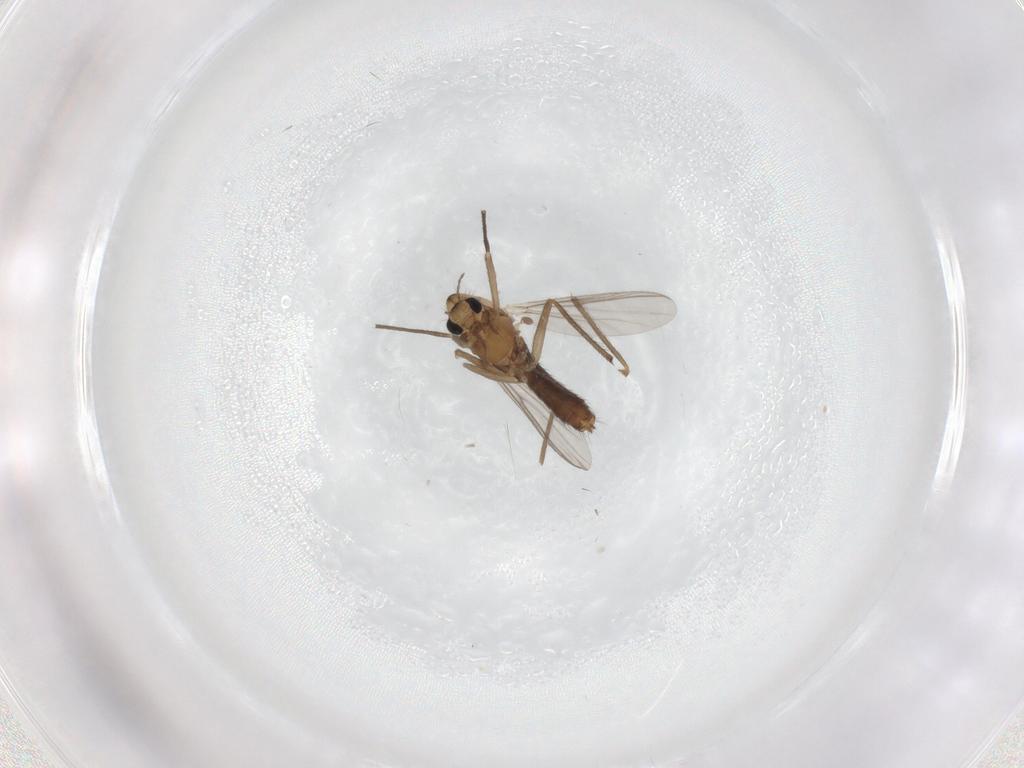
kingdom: Animalia
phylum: Arthropoda
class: Insecta
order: Diptera
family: Chironomidae
